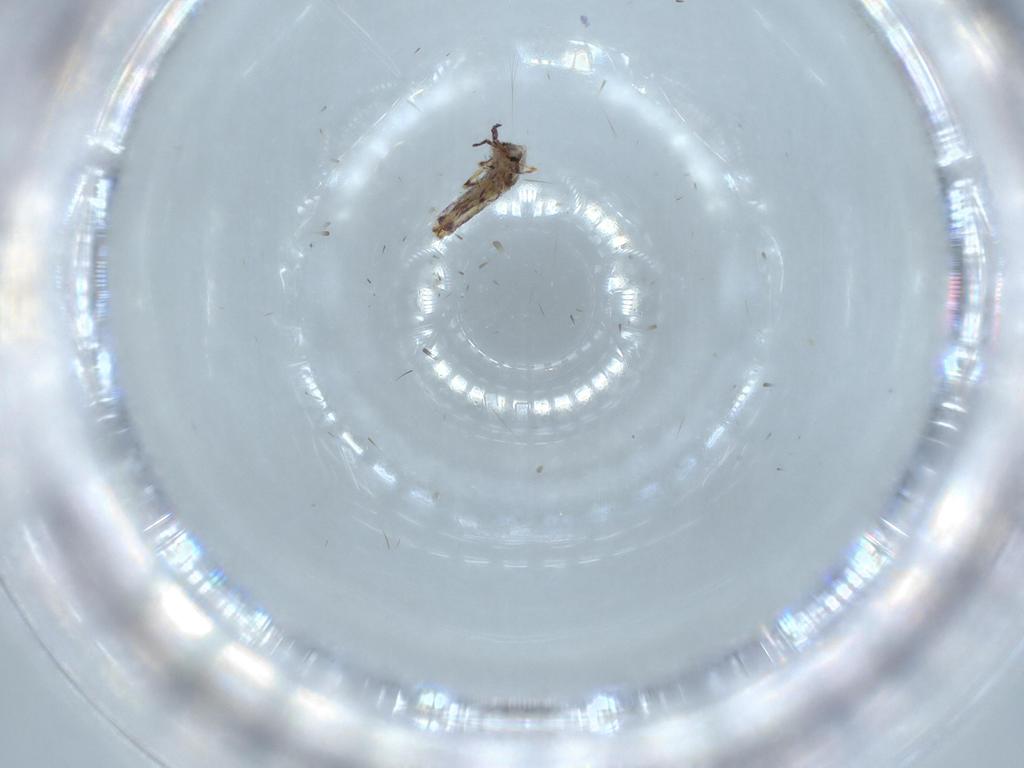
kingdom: Animalia
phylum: Arthropoda
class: Collembola
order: Entomobryomorpha
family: Entomobryidae
